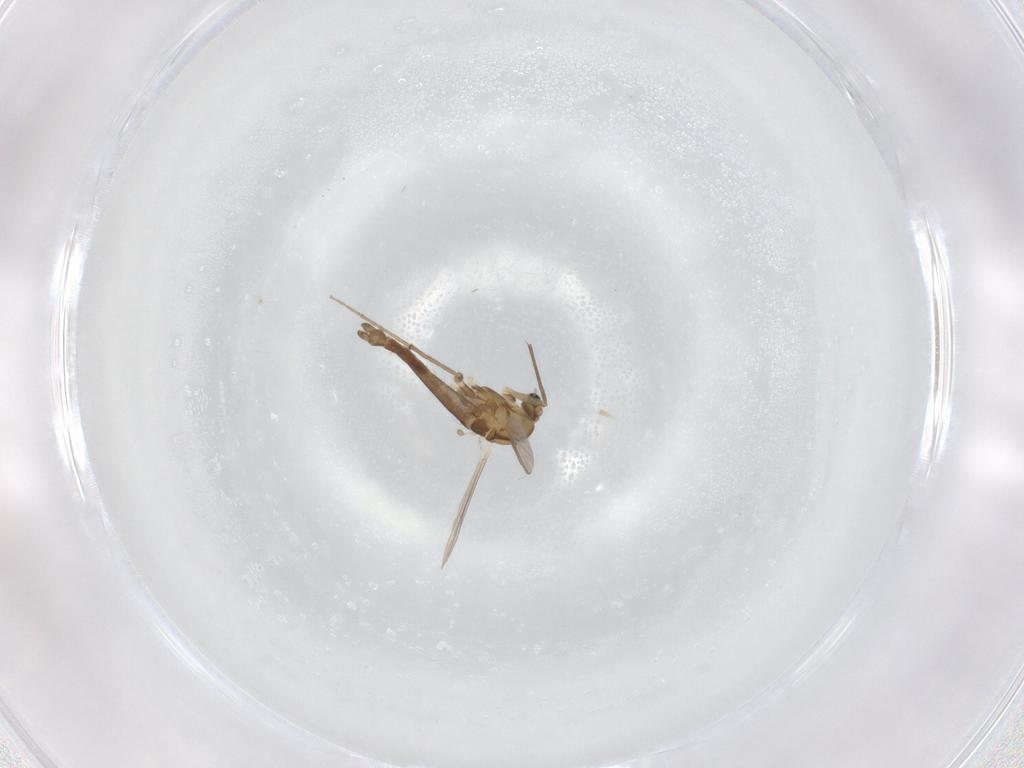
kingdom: Animalia
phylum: Arthropoda
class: Insecta
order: Diptera
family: Chironomidae
